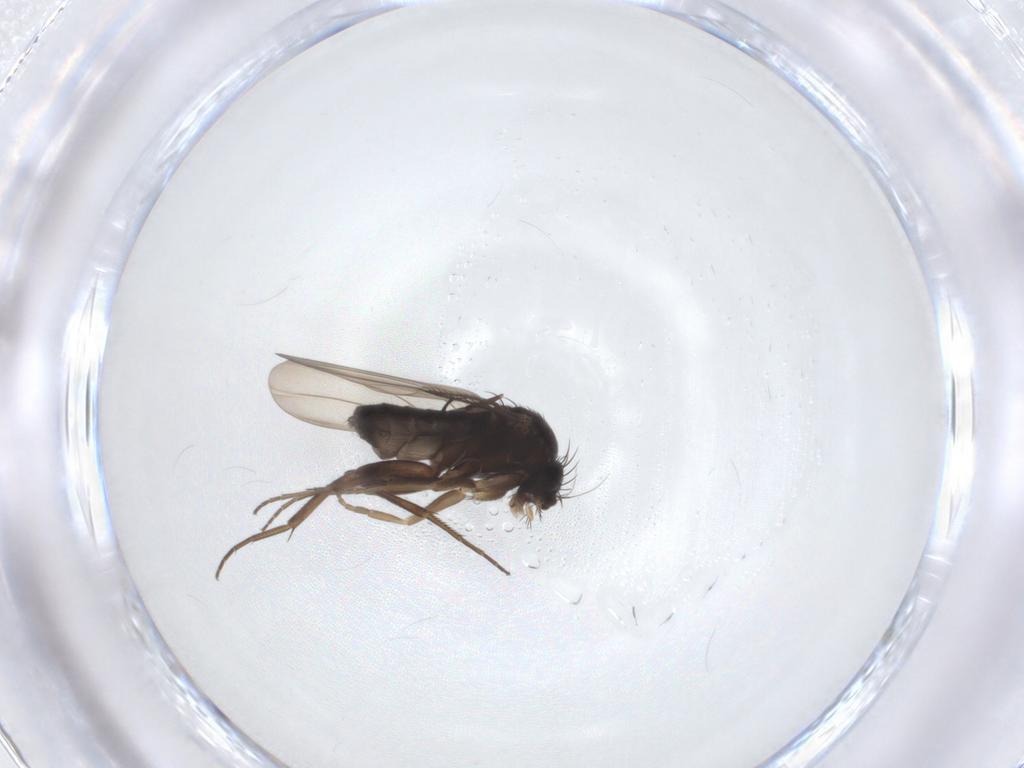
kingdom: Animalia
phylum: Arthropoda
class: Insecta
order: Diptera
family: Phoridae
